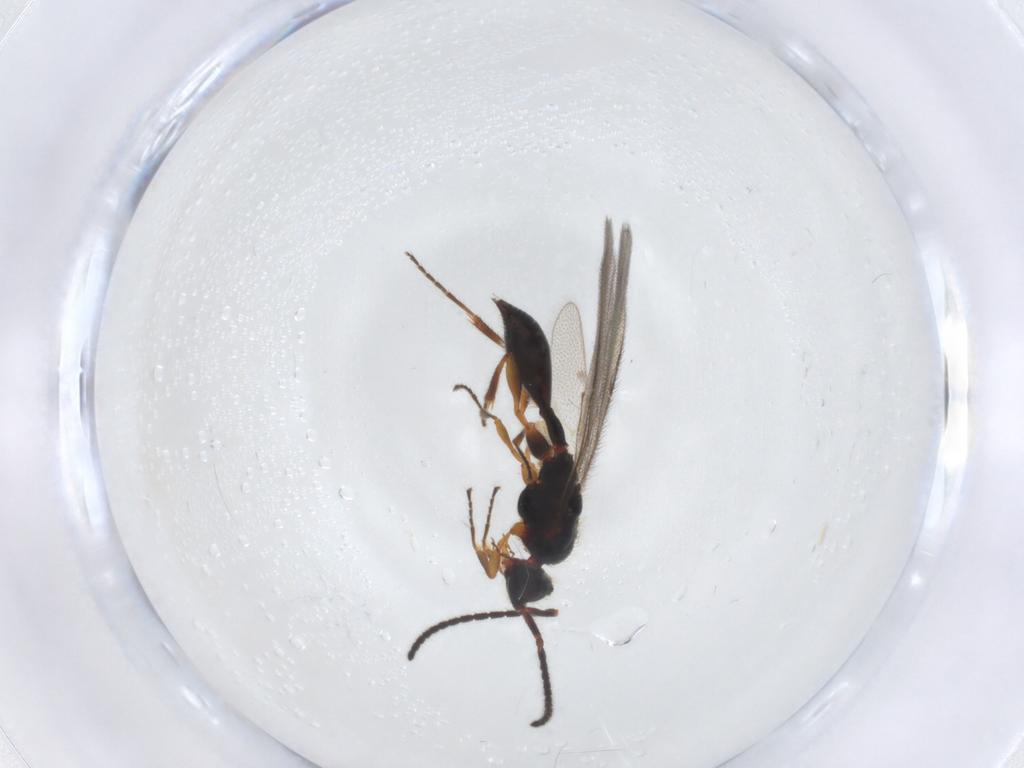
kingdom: Animalia
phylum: Arthropoda
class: Insecta
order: Hymenoptera
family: Diapriidae
